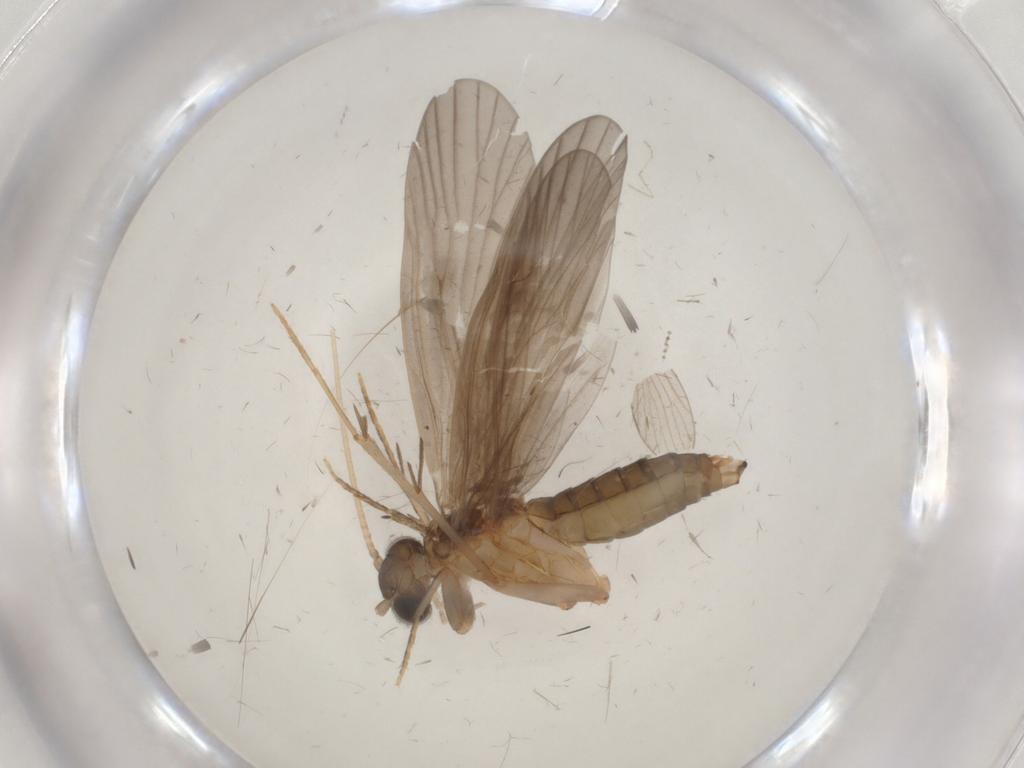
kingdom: Animalia
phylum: Arthropoda
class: Insecta
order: Trichoptera
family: Philopotamidae
